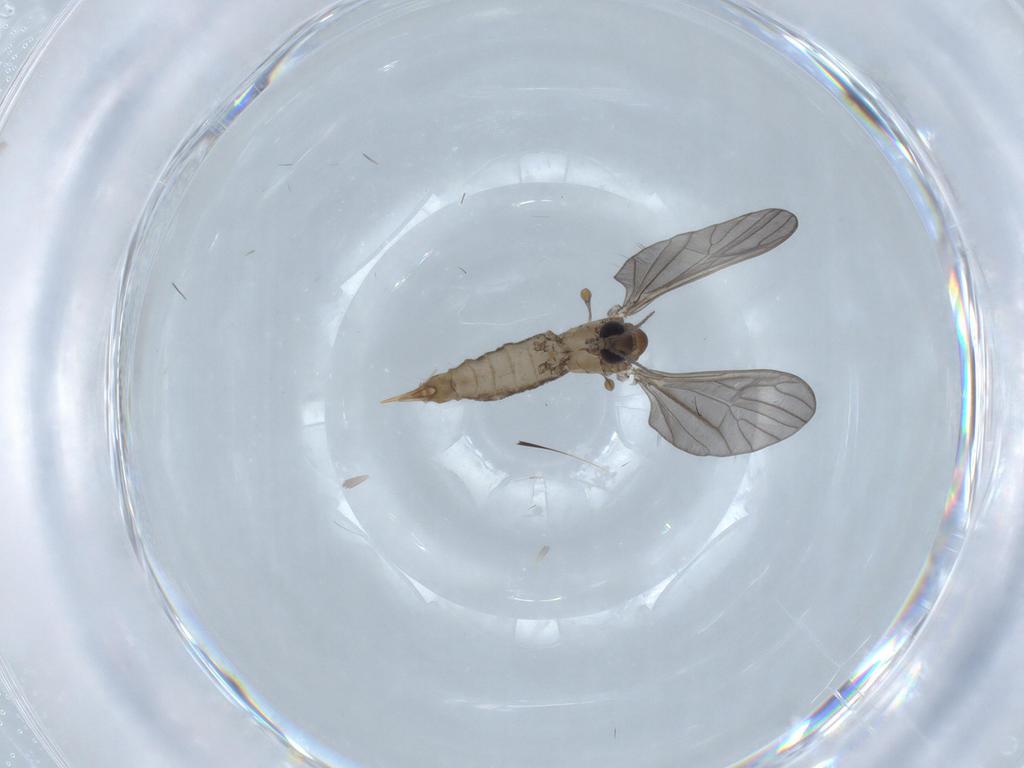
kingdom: Animalia
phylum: Arthropoda
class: Insecta
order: Diptera
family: Limoniidae
